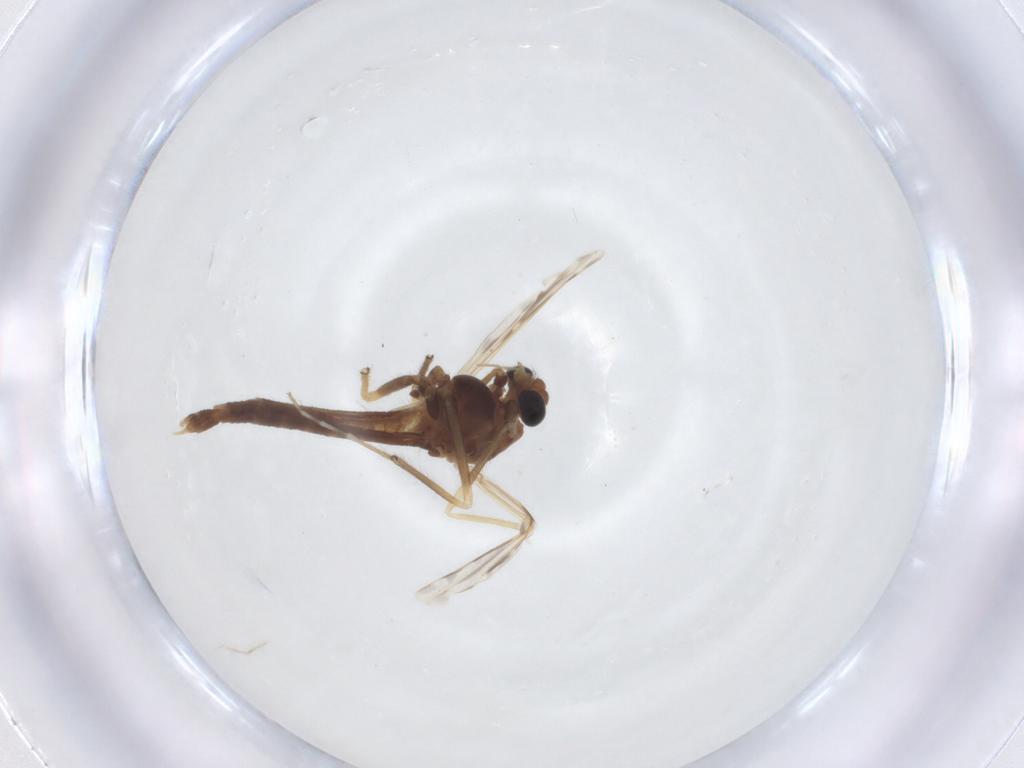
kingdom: Animalia
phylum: Arthropoda
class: Insecta
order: Diptera
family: Cecidomyiidae
